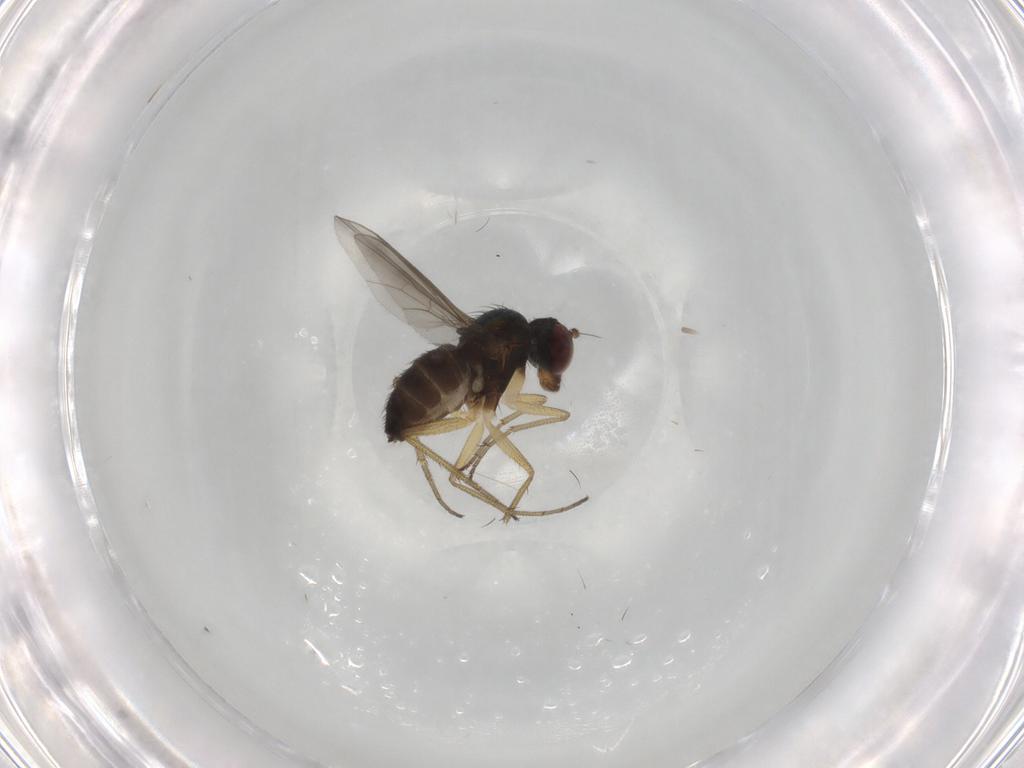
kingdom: Animalia
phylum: Arthropoda
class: Insecta
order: Diptera
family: Dolichopodidae
